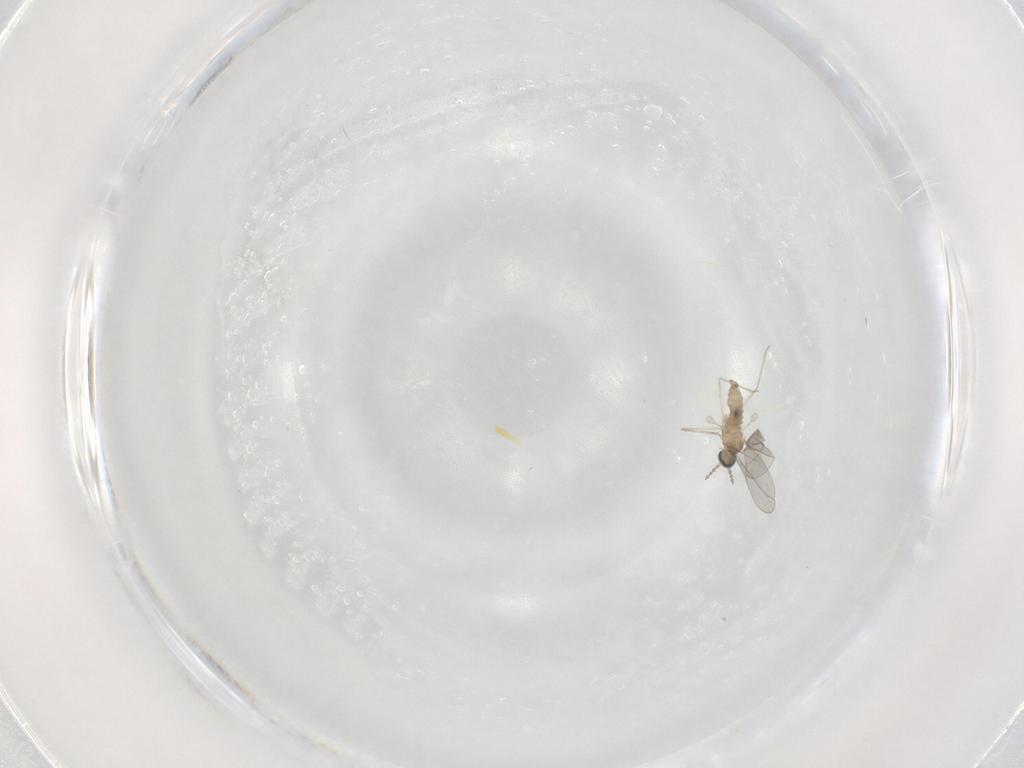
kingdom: Animalia
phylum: Arthropoda
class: Insecta
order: Diptera
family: Cecidomyiidae
